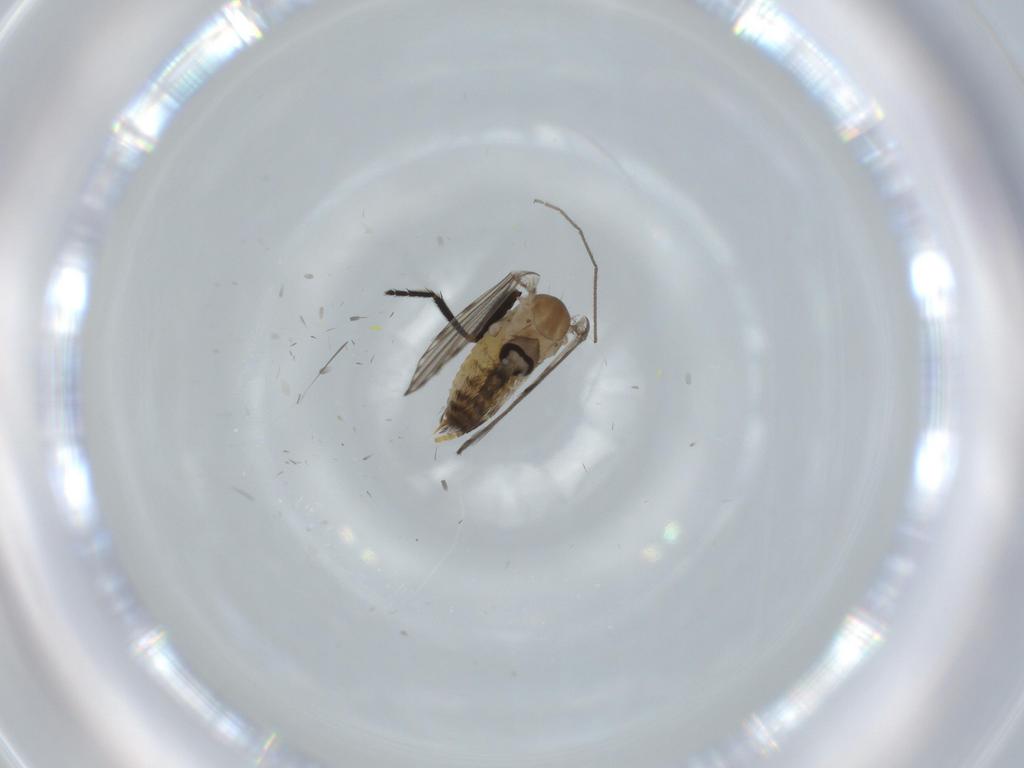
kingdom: Animalia
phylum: Arthropoda
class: Insecta
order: Diptera
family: Psychodidae
